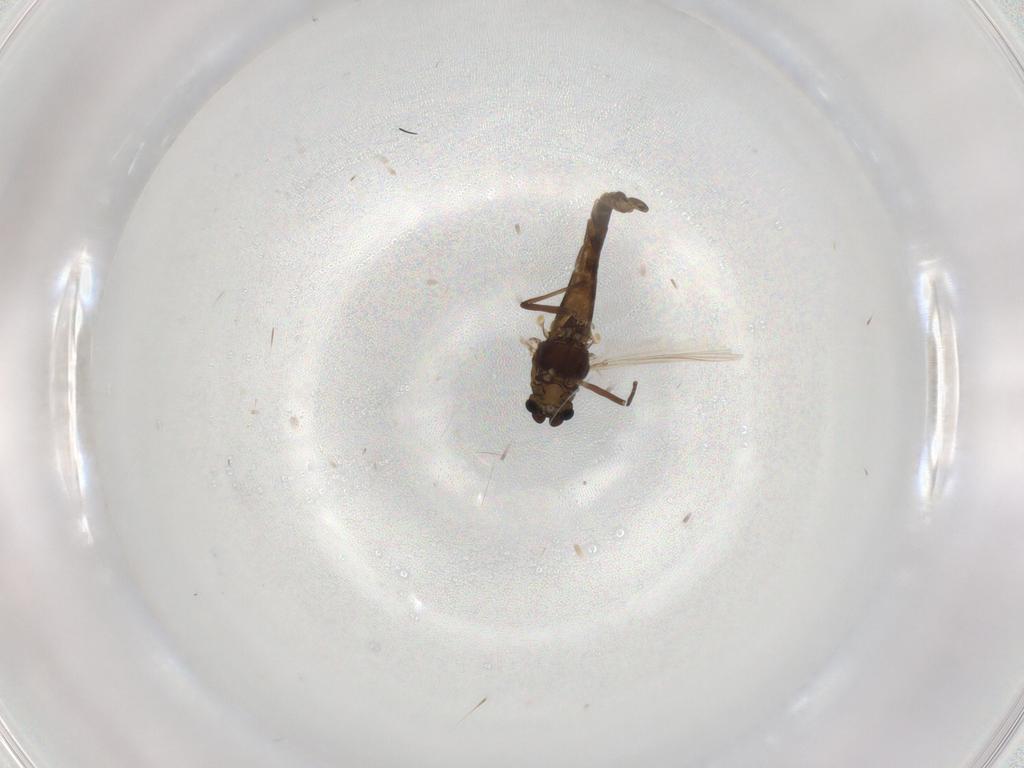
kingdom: Animalia
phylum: Arthropoda
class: Insecta
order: Diptera
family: Chironomidae
